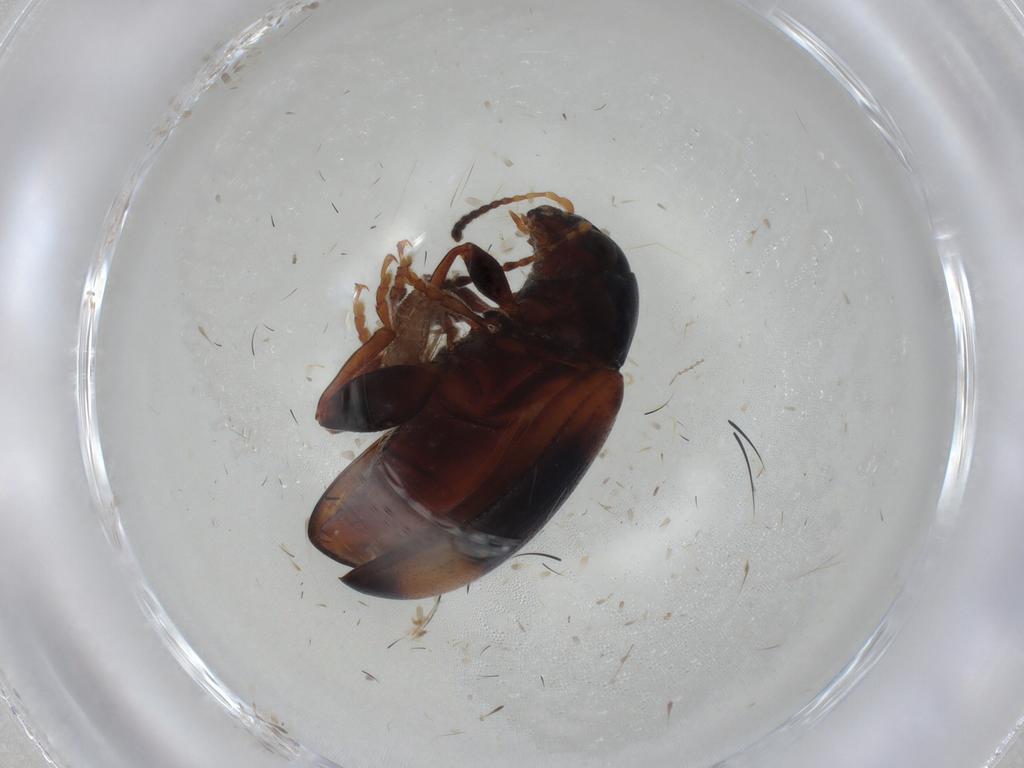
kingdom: Animalia
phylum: Arthropoda
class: Insecta
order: Coleoptera
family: Chrysomelidae
